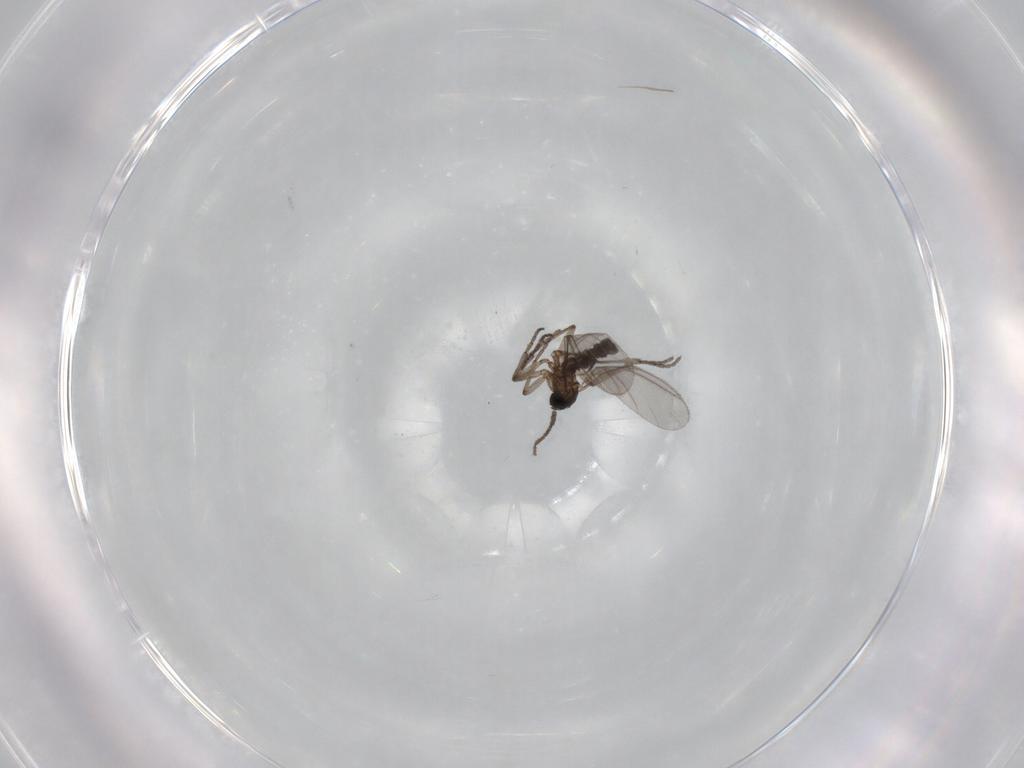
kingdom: Animalia
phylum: Arthropoda
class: Insecta
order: Diptera
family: Sciaridae
